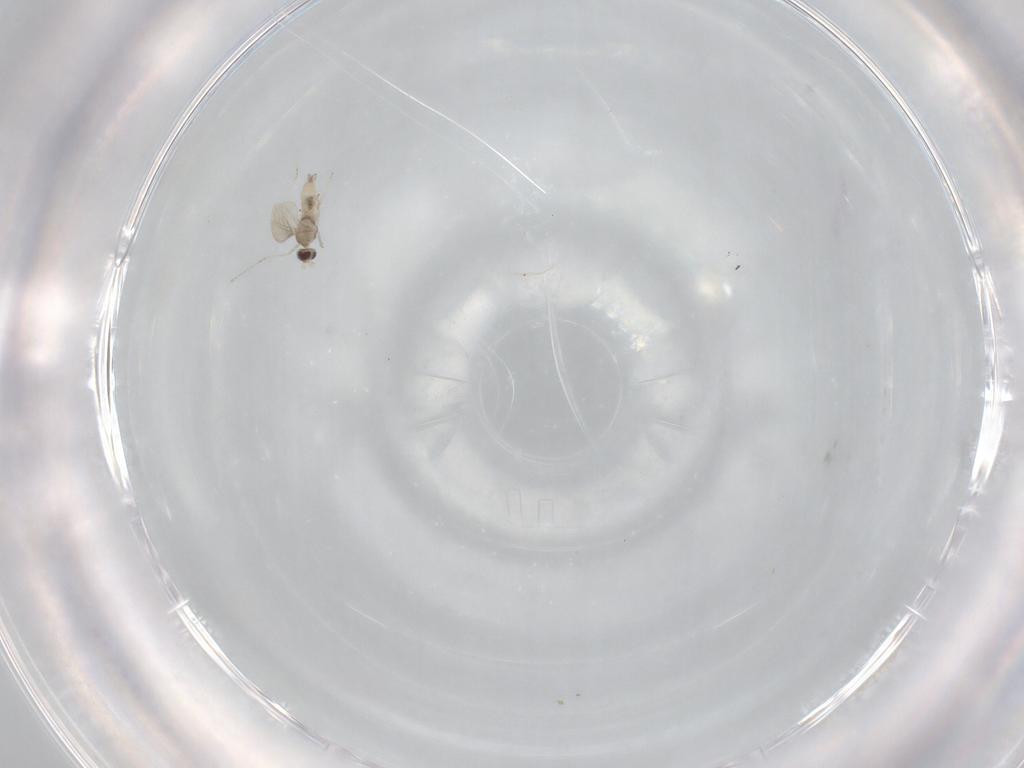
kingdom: Animalia
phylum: Arthropoda
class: Insecta
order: Diptera
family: Cecidomyiidae
